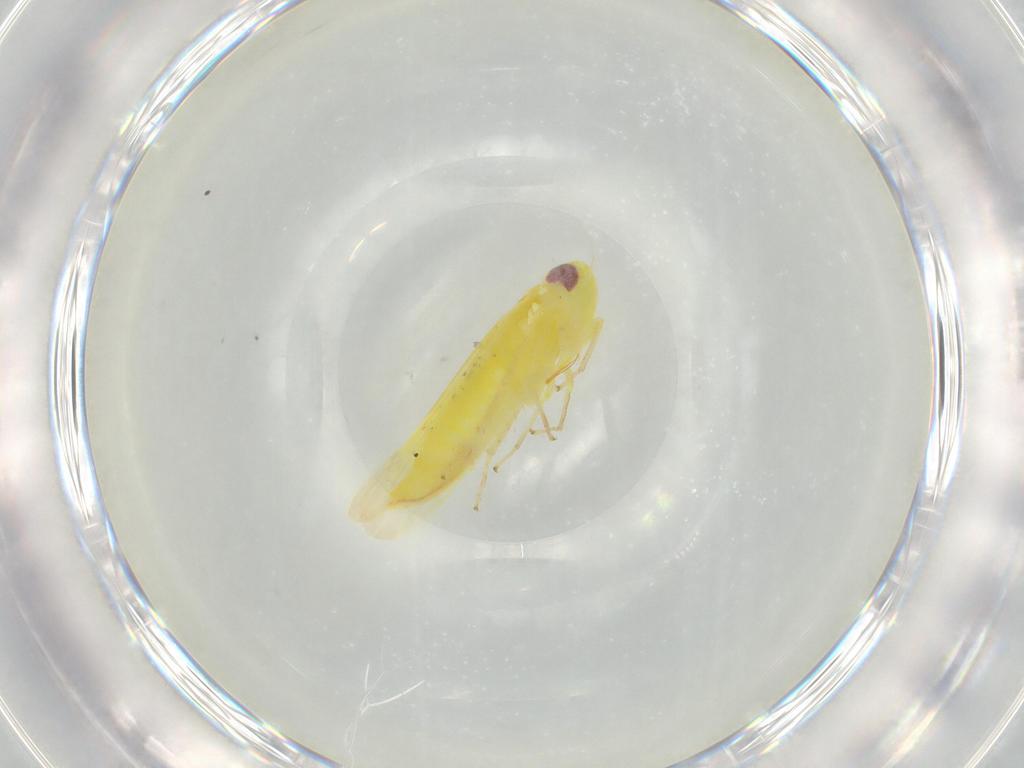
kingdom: Animalia
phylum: Arthropoda
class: Insecta
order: Hemiptera
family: Cicadellidae
